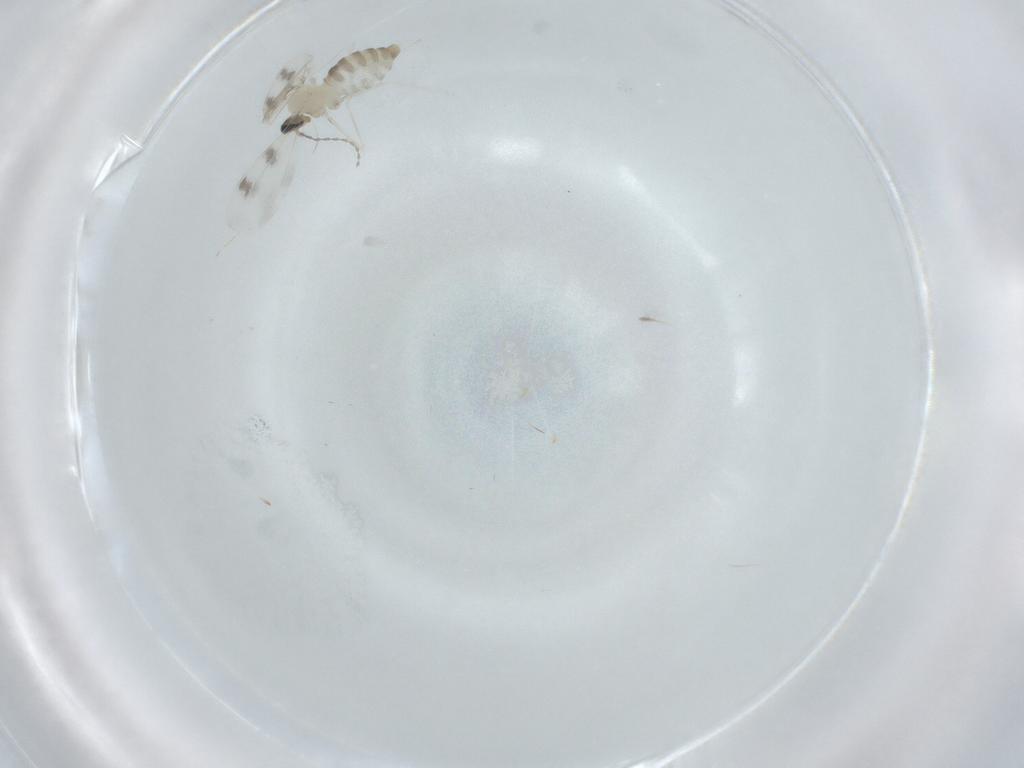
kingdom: Animalia
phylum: Arthropoda
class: Insecta
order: Diptera
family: Cecidomyiidae
